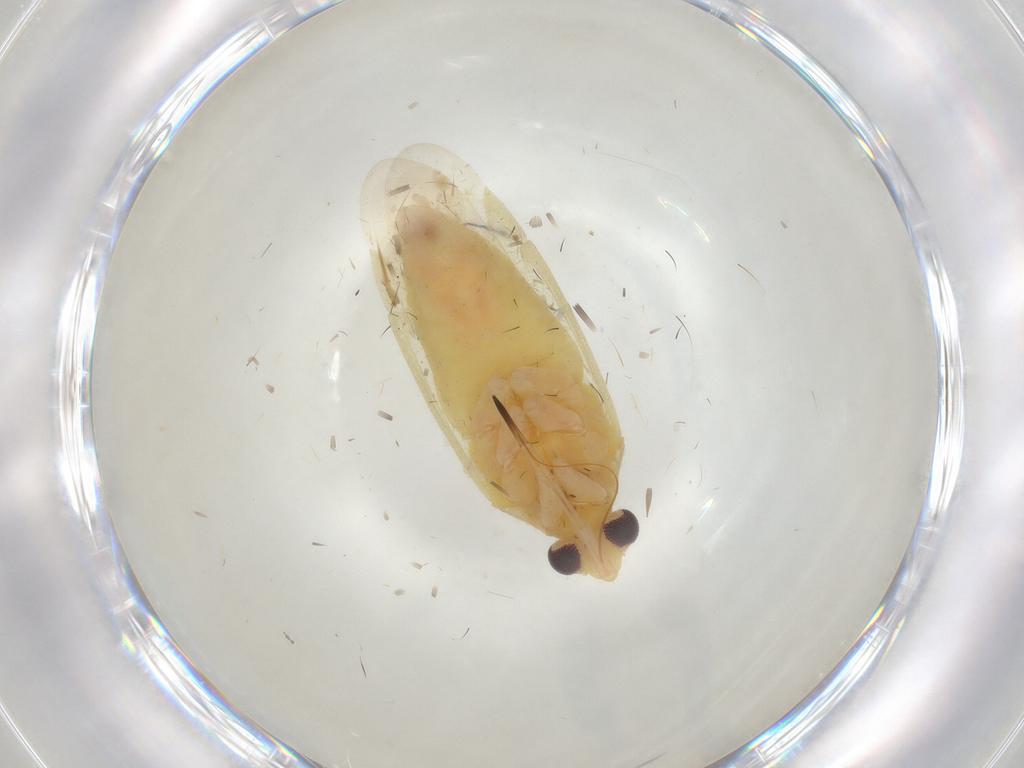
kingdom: Animalia
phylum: Arthropoda
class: Insecta
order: Hemiptera
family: Miridae
